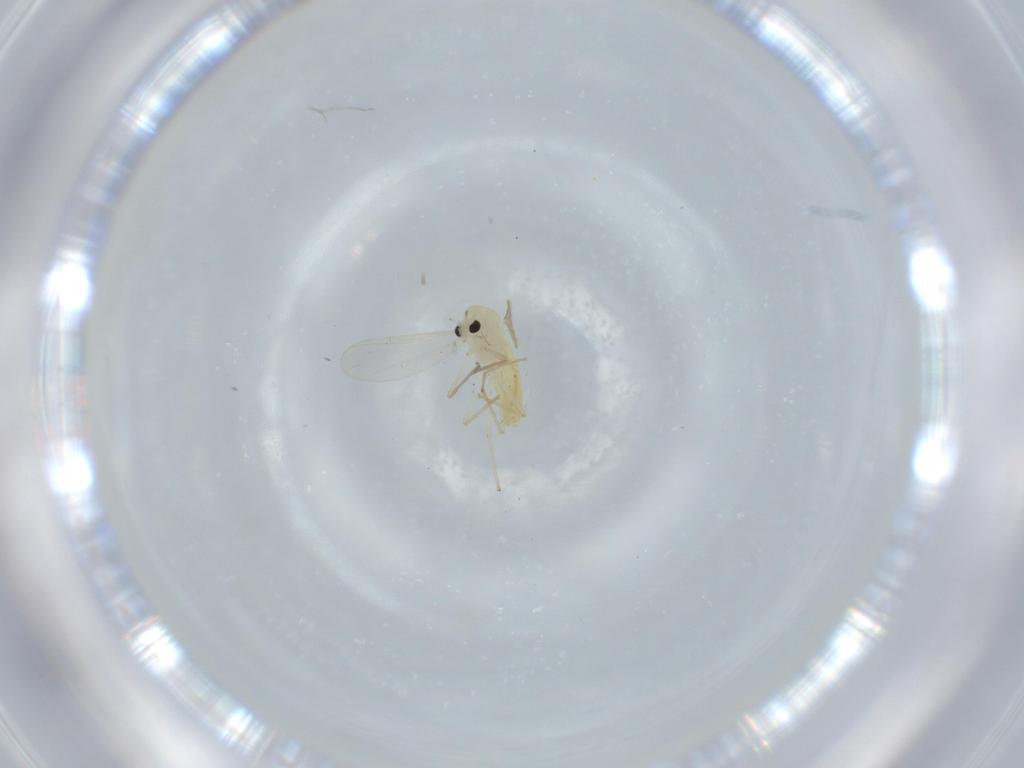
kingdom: Animalia
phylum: Arthropoda
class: Insecta
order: Diptera
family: Chironomidae
